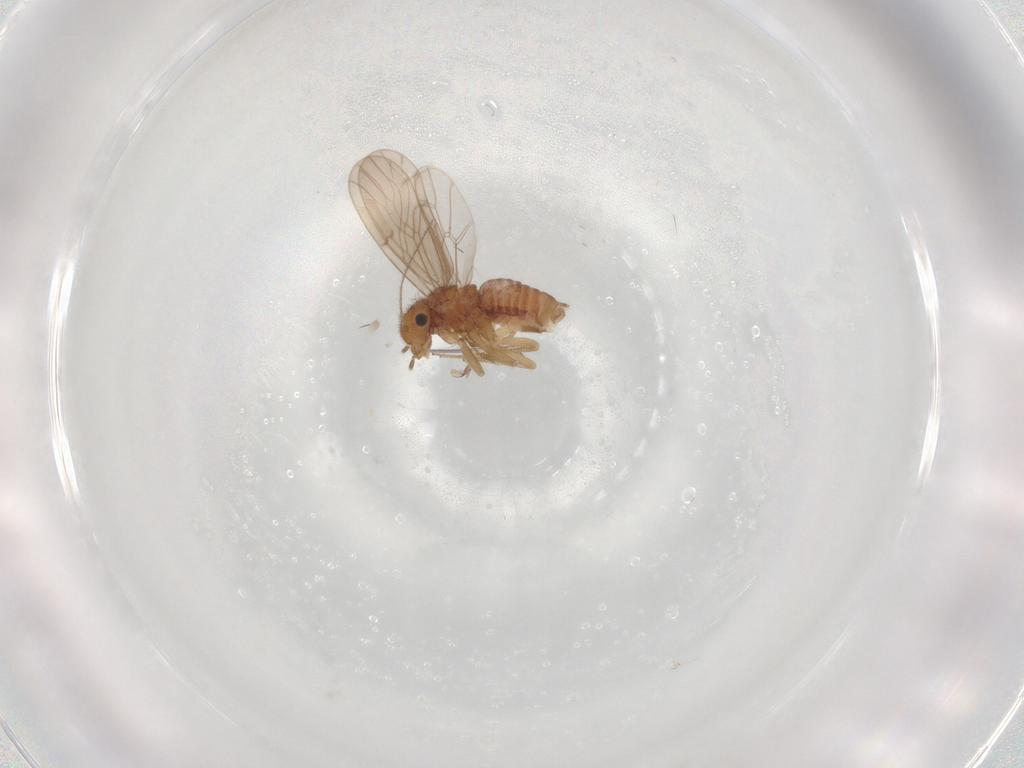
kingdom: Animalia
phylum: Arthropoda
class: Insecta
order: Psocodea
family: Ectopsocidae
